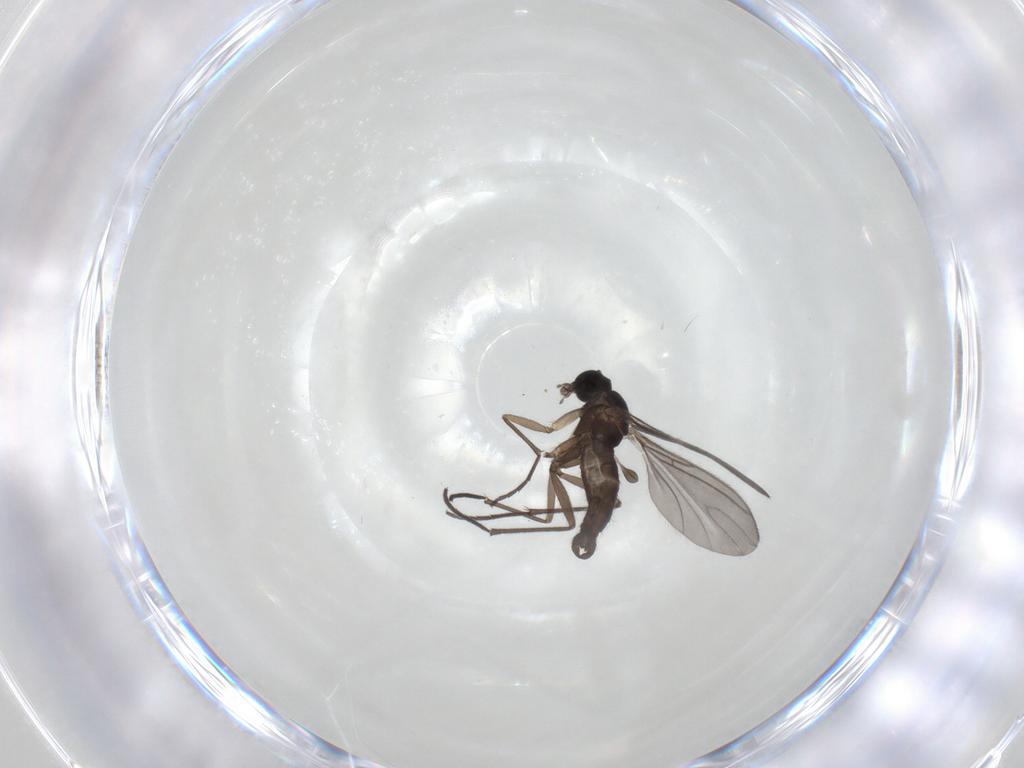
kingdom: Animalia
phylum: Arthropoda
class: Insecta
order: Diptera
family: Sciaridae
